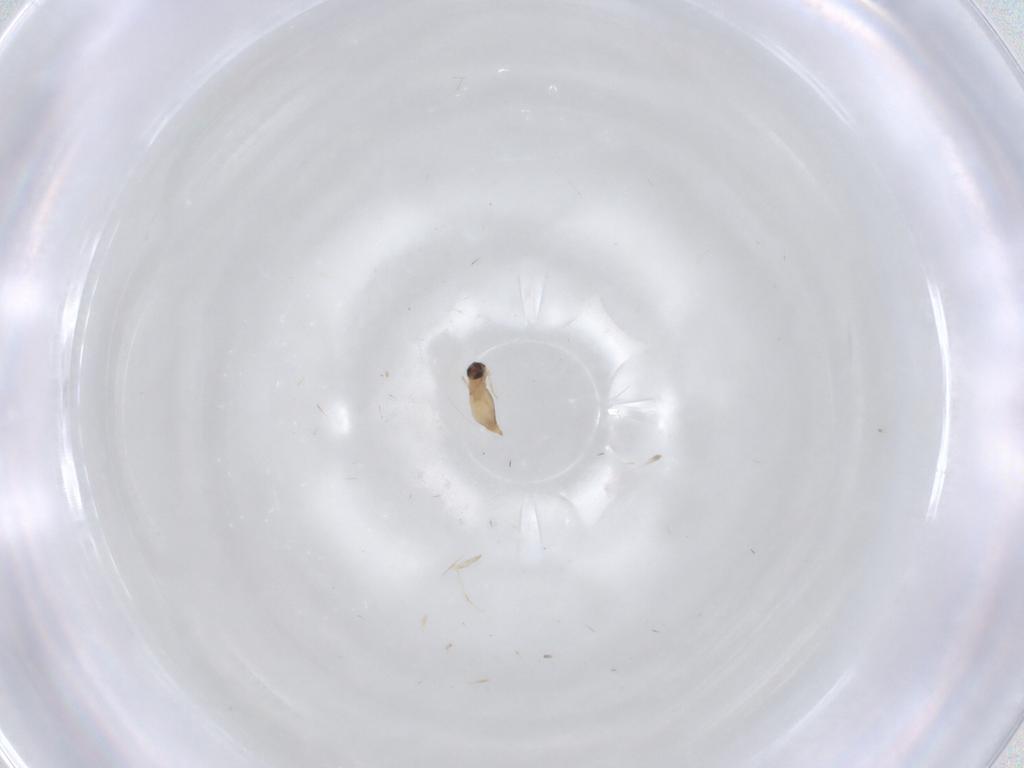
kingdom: Animalia
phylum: Arthropoda
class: Insecta
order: Diptera
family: Cecidomyiidae
